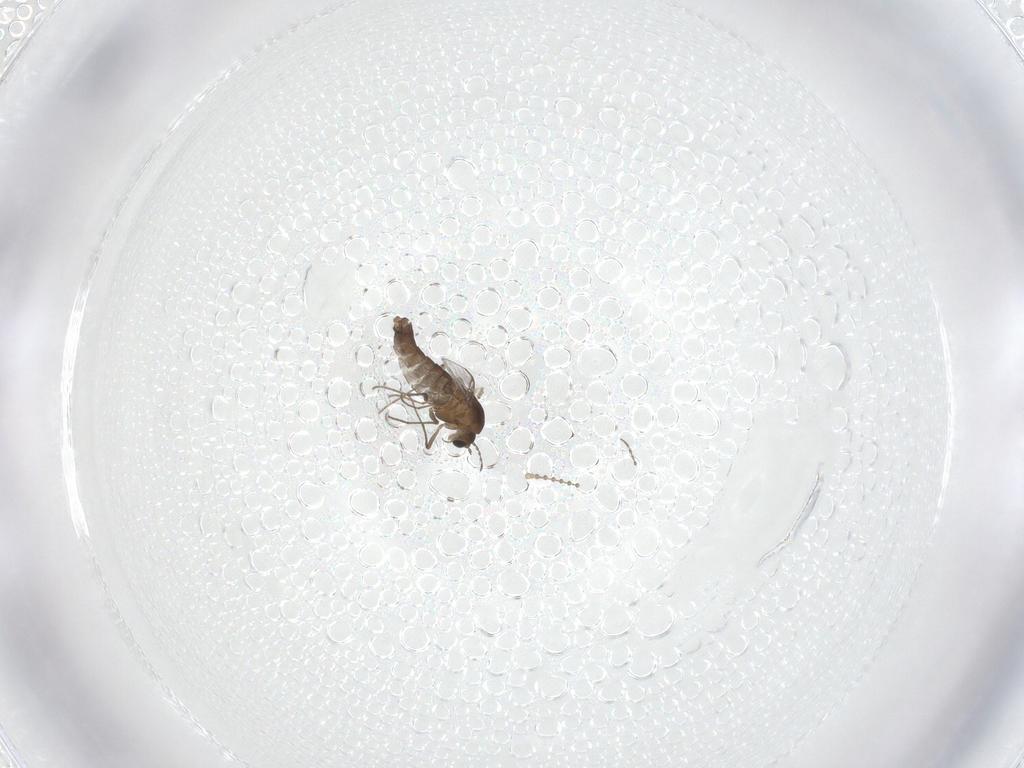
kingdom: Animalia
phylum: Arthropoda
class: Insecta
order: Diptera
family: Chironomidae
